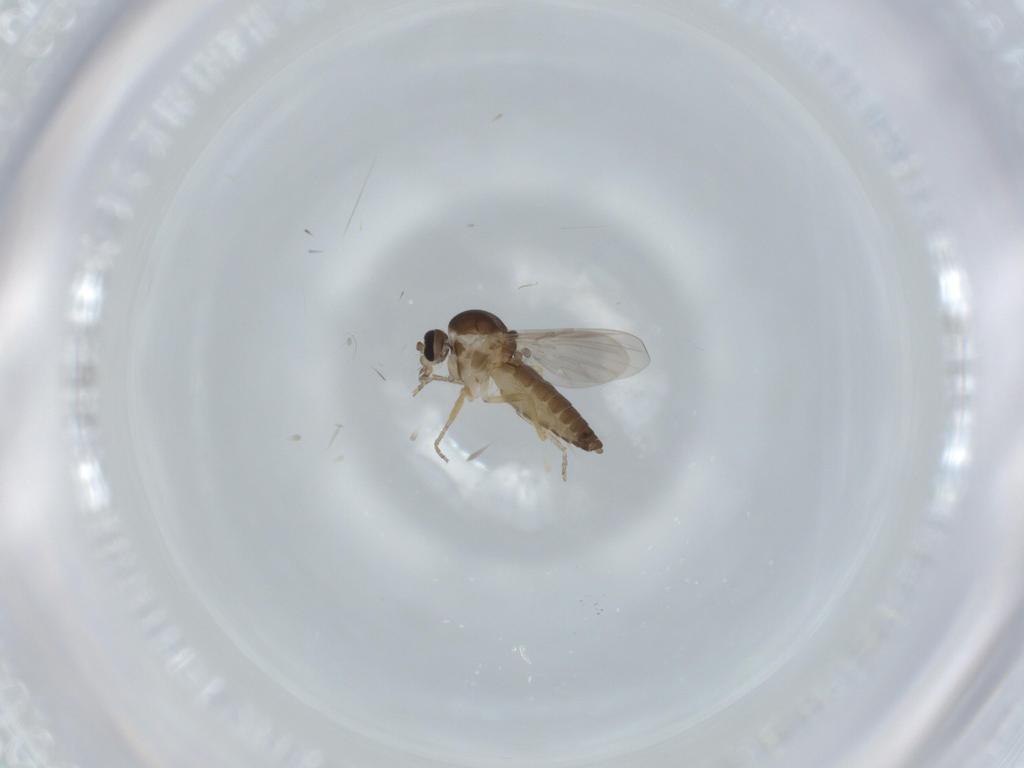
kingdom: Animalia
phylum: Arthropoda
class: Insecta
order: Diptera
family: Ceratopogonidae
